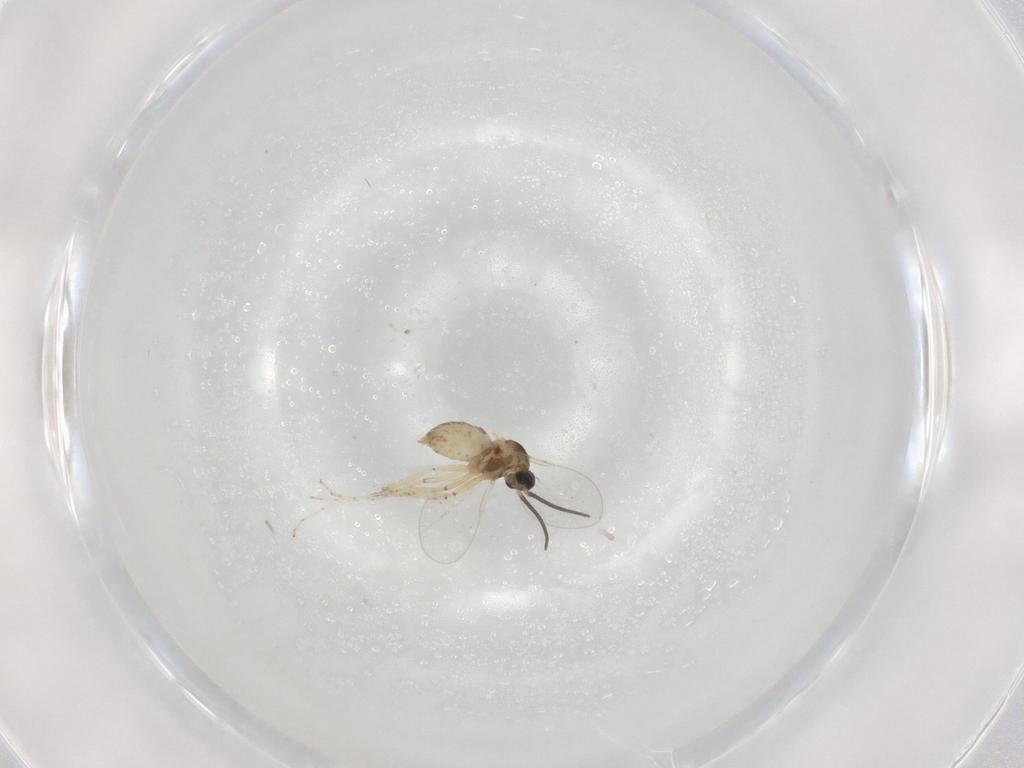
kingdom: Animalia
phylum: Arthropoda
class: Insecta
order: Diptera
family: Cecidomyiidae
